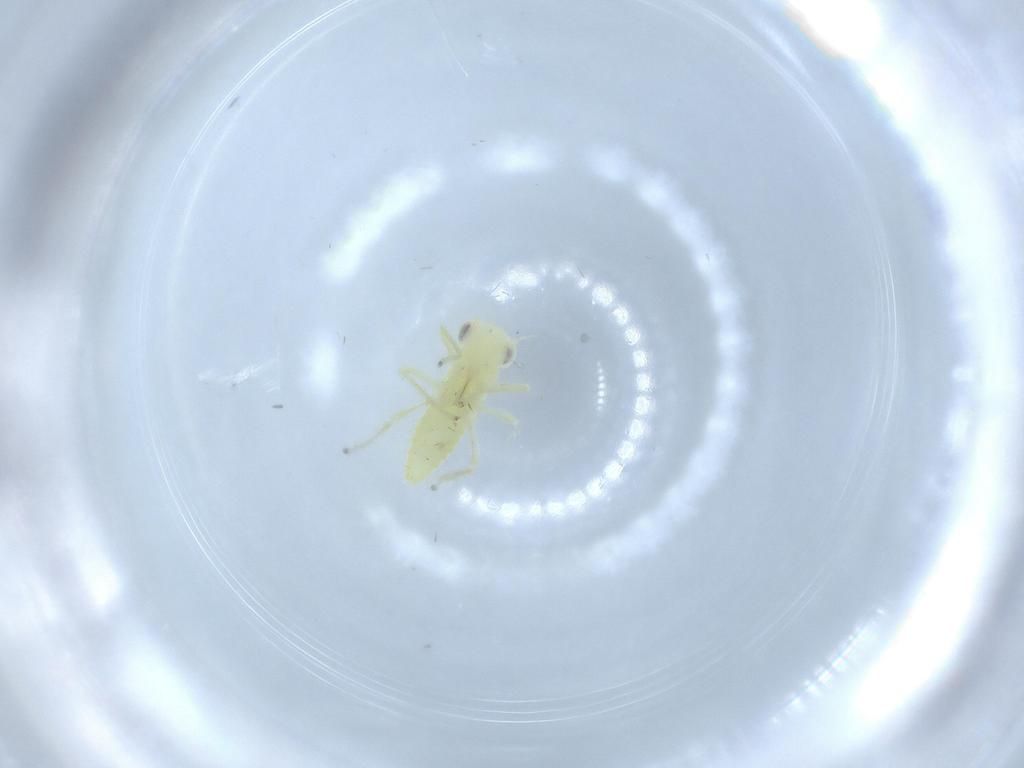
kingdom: Animalia
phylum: Arthropoda
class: Insecta
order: Hemiptera
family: Cicadellidae
